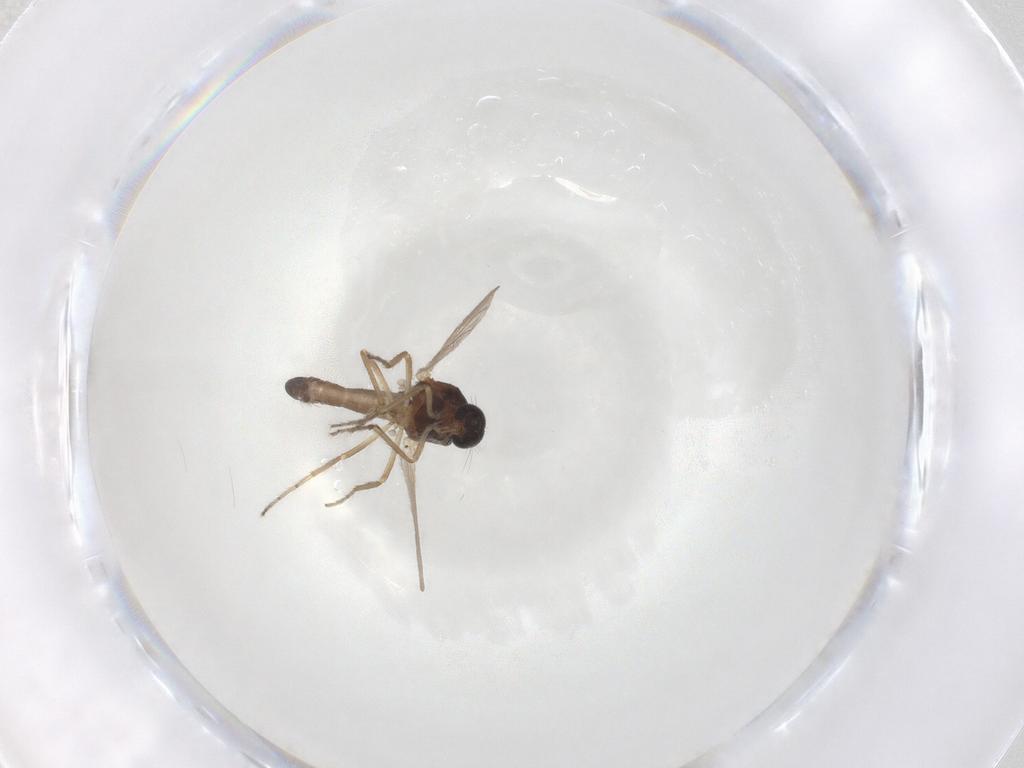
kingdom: Animalia
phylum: Arthropoda
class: Insecta
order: Diptera
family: Ceratopogonidae
